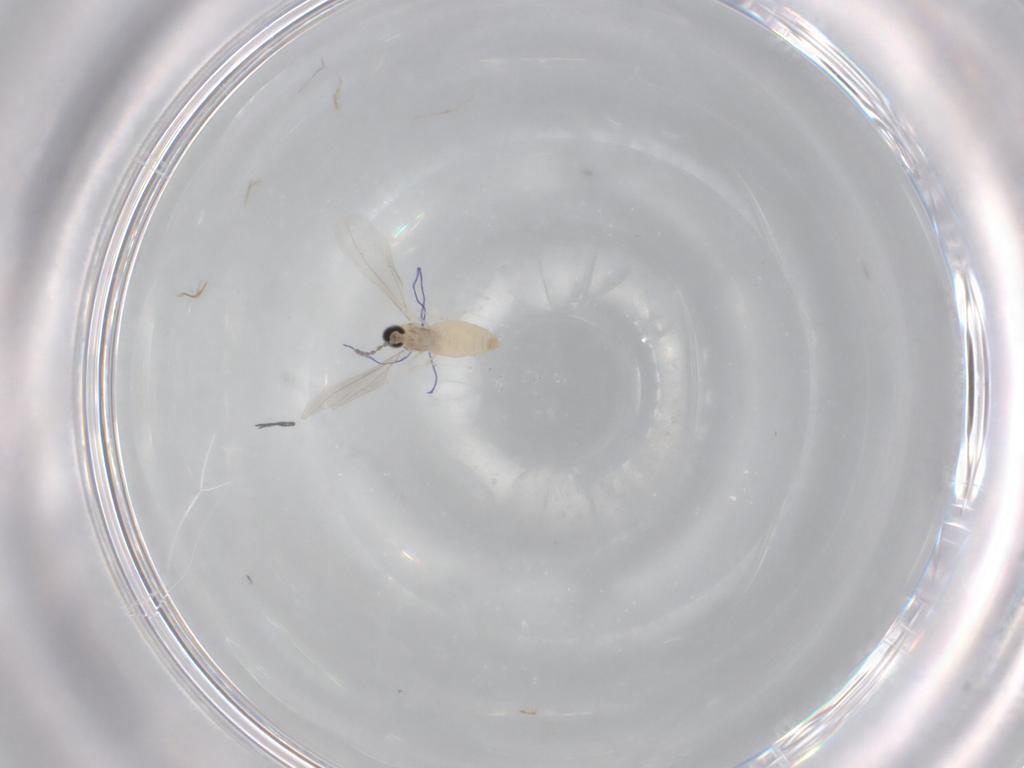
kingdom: Animalia
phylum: Arthropoda
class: Insecta
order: Diptera
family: Cecidomyiidae
